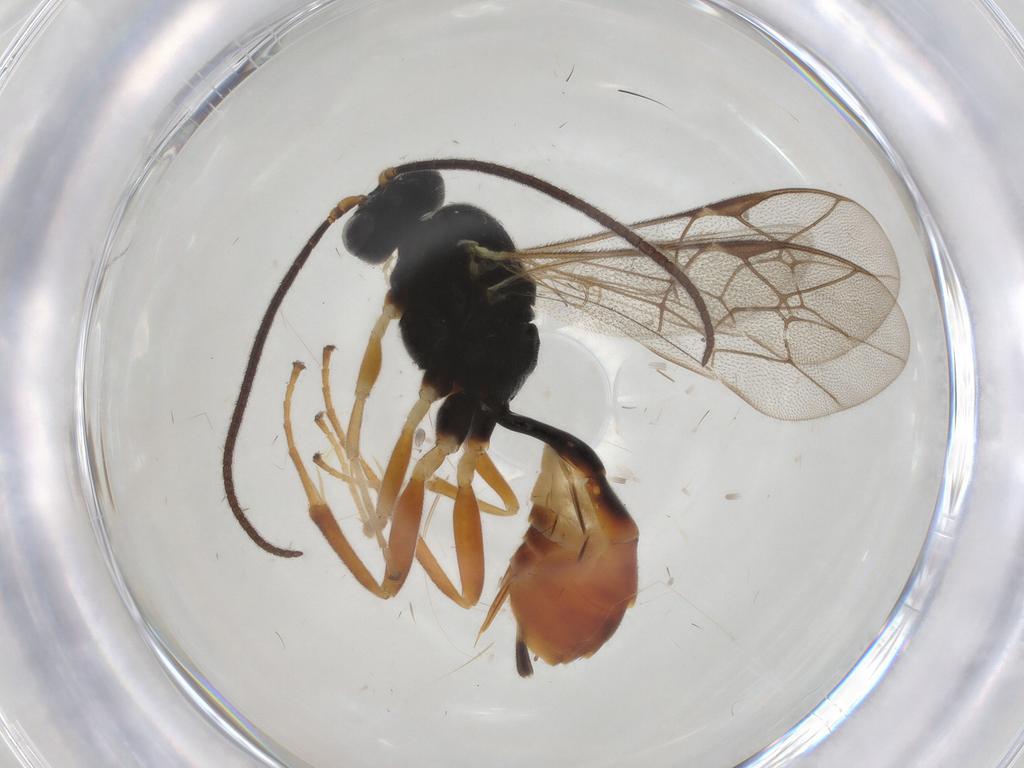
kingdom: Animalia
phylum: Arthropoda
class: Insecta
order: Hymenoptera
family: Ichneumonidae
